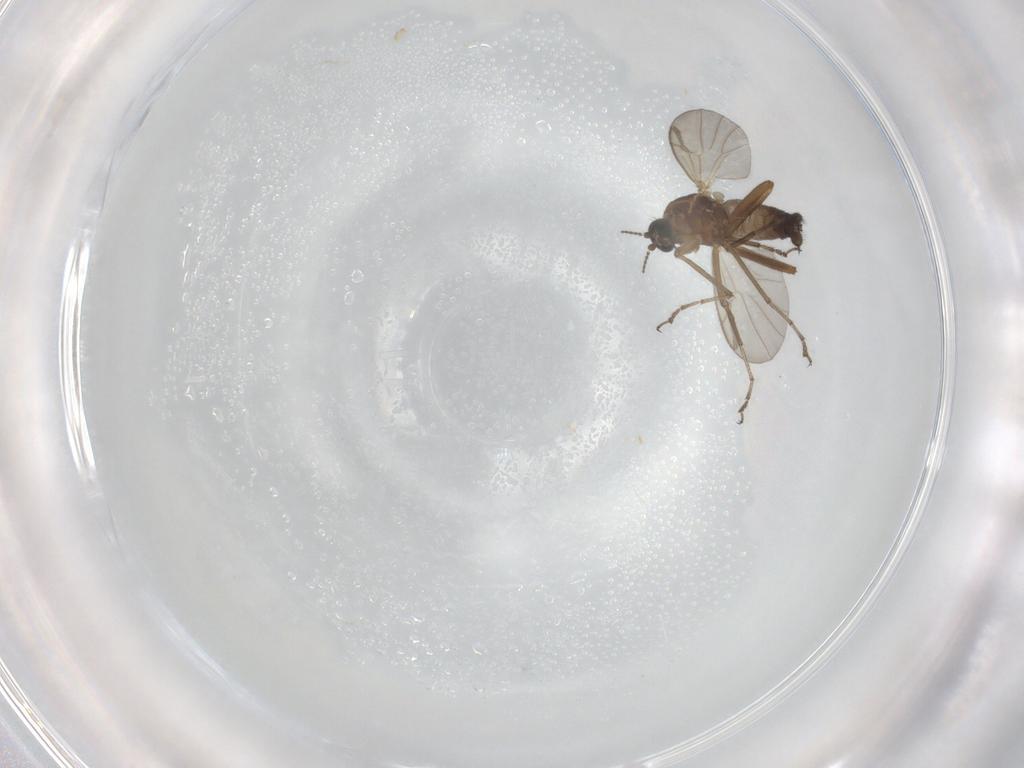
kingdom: Animalia
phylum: Arthropoda
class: Insecta
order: Diptera
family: Ceratopogonidae
